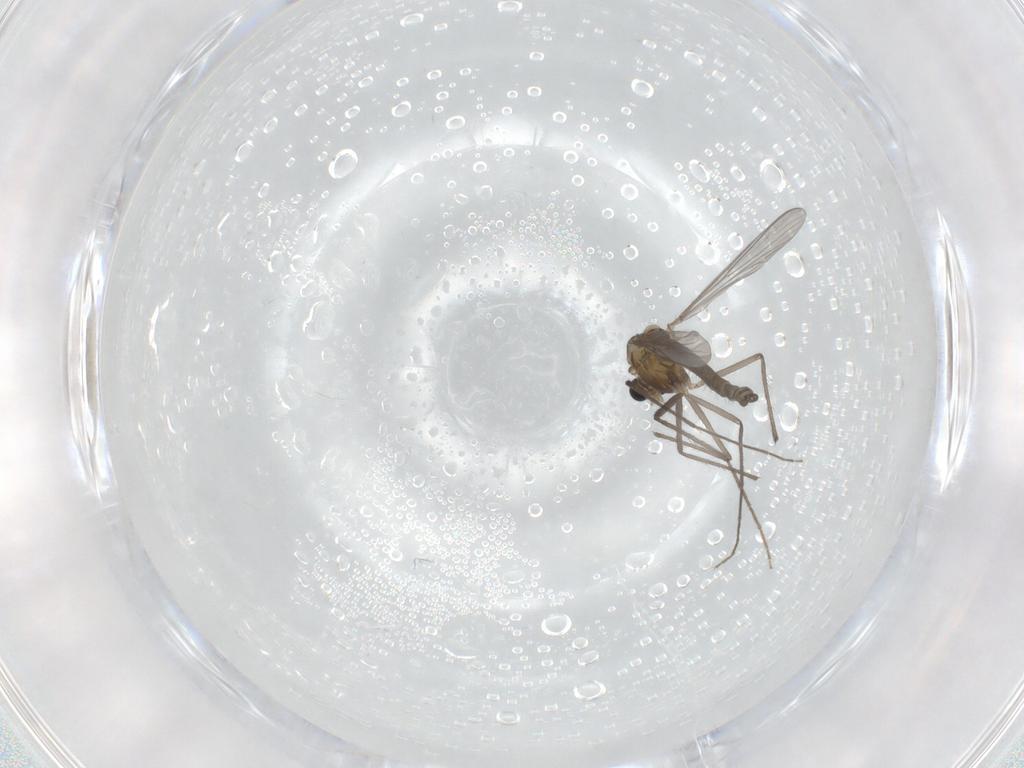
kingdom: Animalia
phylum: Arthropoda
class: Insecta
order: Diptera
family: Chironomidae
